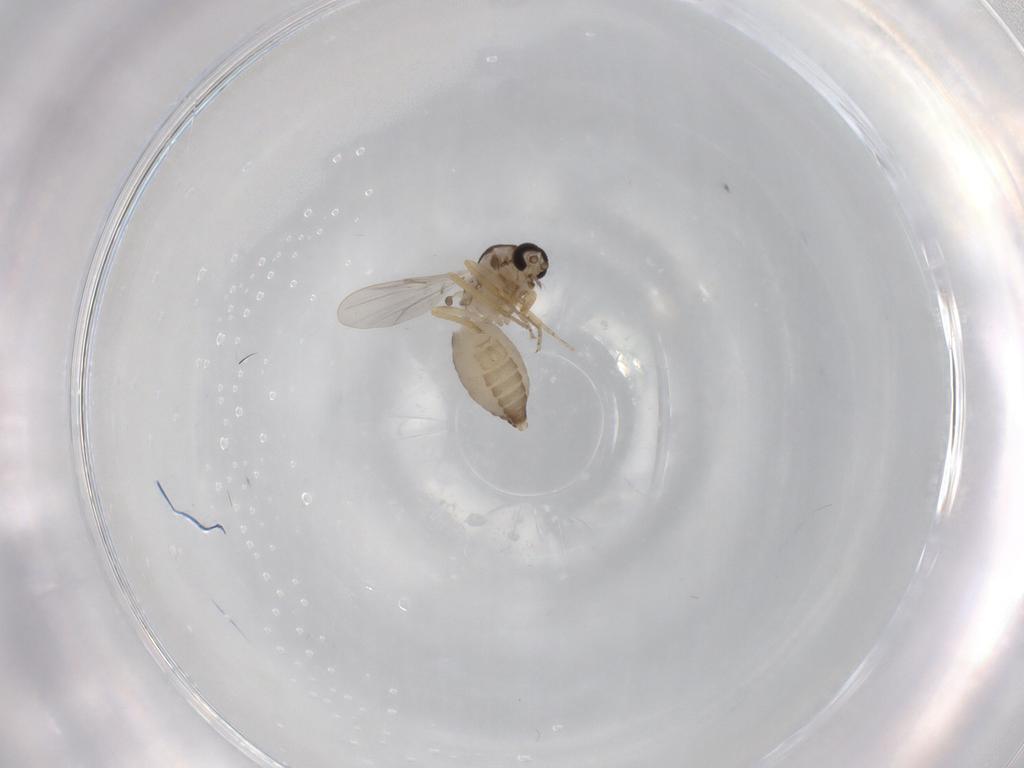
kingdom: Animalia
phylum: Arthropoda
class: Insecta
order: Diptera
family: Ceratopogonidae
